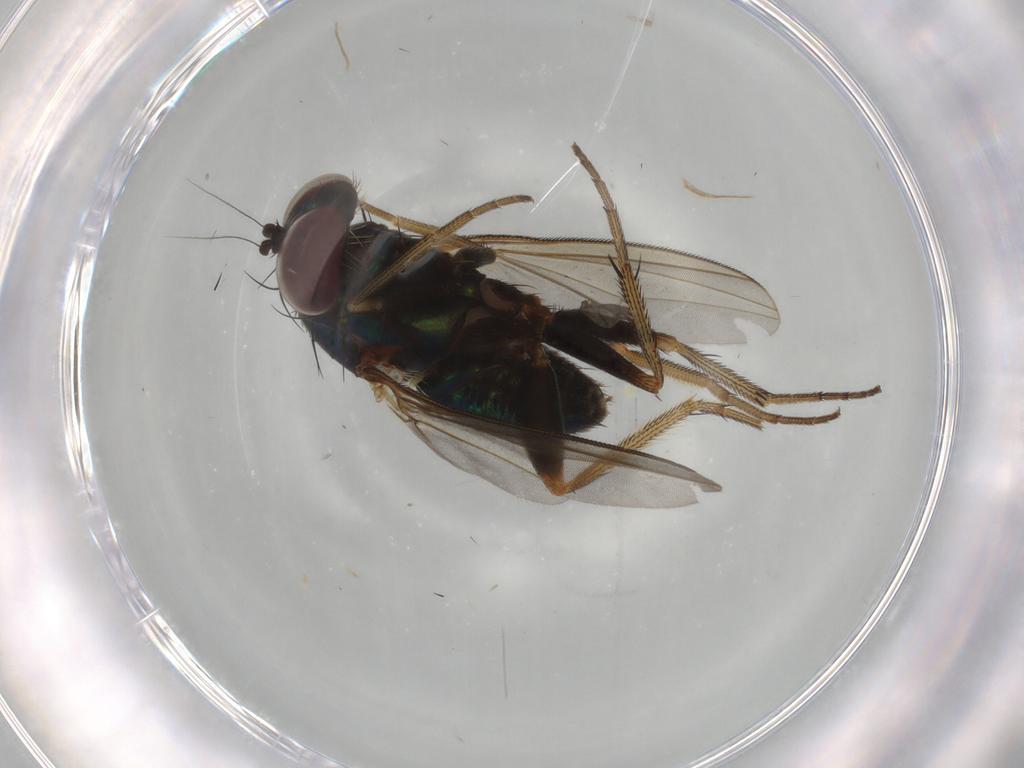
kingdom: Animalia
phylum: Arthropoda
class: Insecta
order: Diptera
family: Chironomidae
